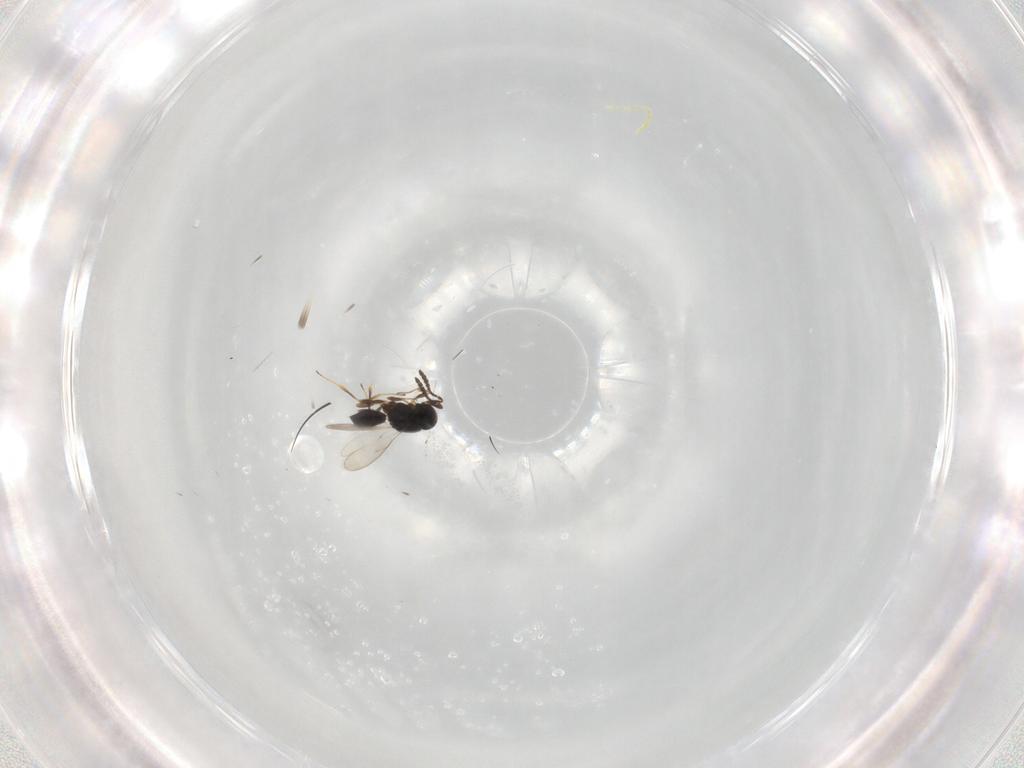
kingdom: Animalia
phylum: Arthropoda
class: Insecta
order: Hymenoptera
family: Scelionidae
